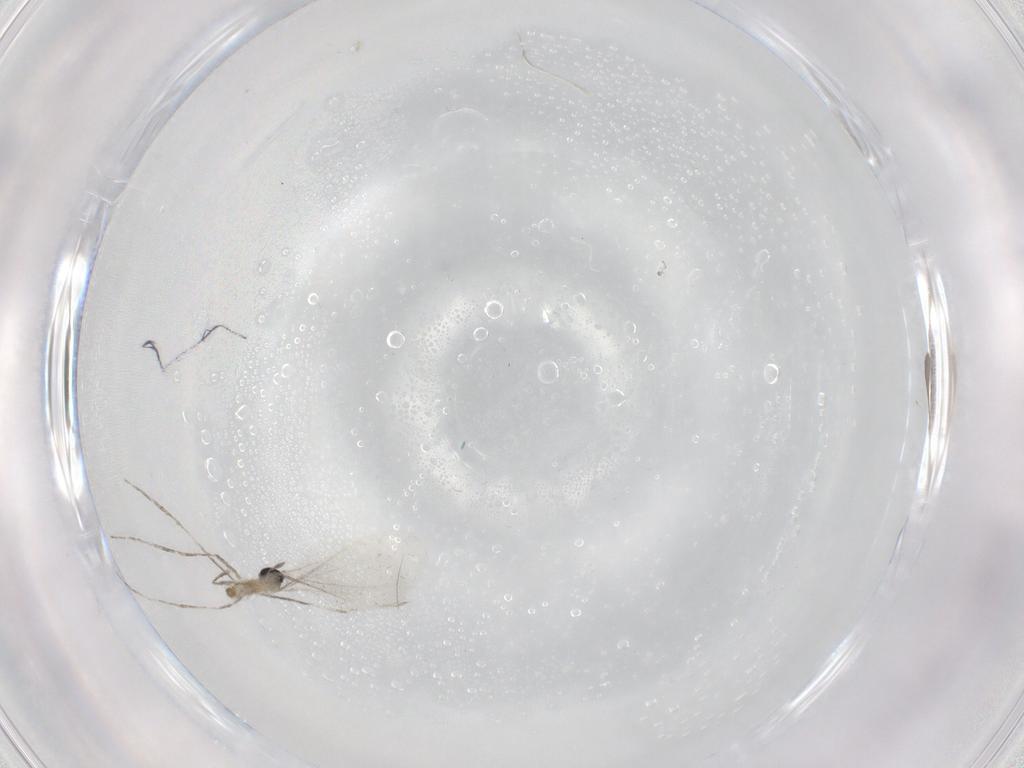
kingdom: Animalia
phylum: Arthropoda
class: Insecta
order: Diptera
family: Cecidomyiidae
